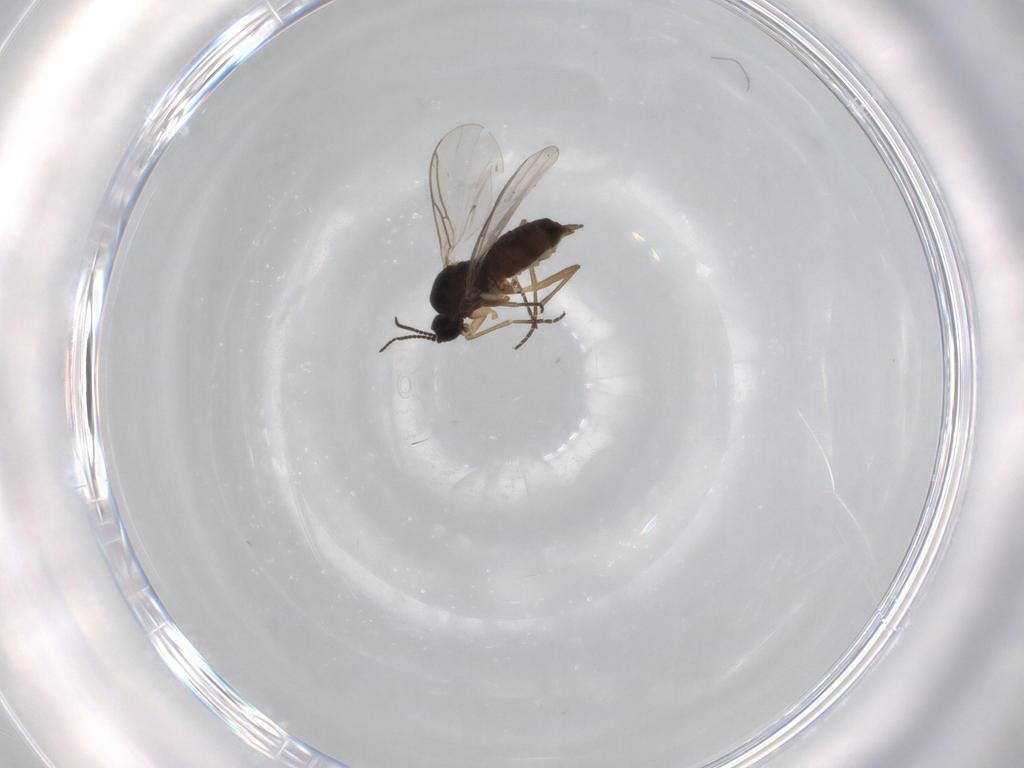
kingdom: Animalia
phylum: Arthropoda
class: Insecta
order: Diptera
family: Sciaridae
